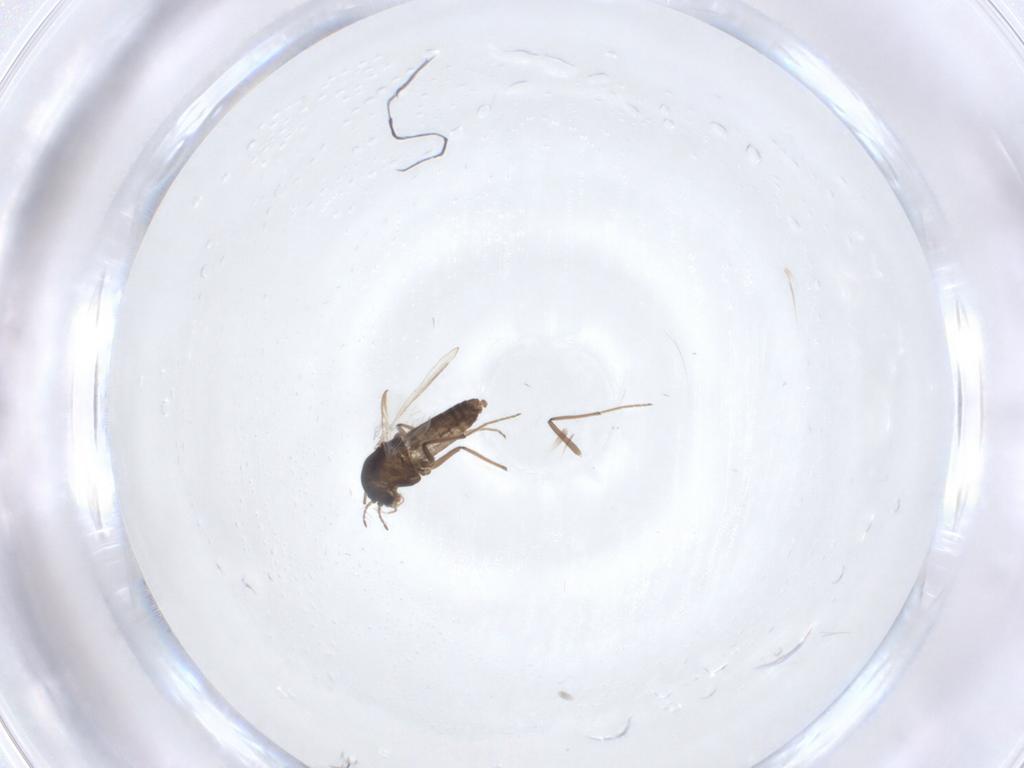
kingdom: Animalia
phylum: Arthropoda
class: Insecta
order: Diptera
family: Chironomidae
